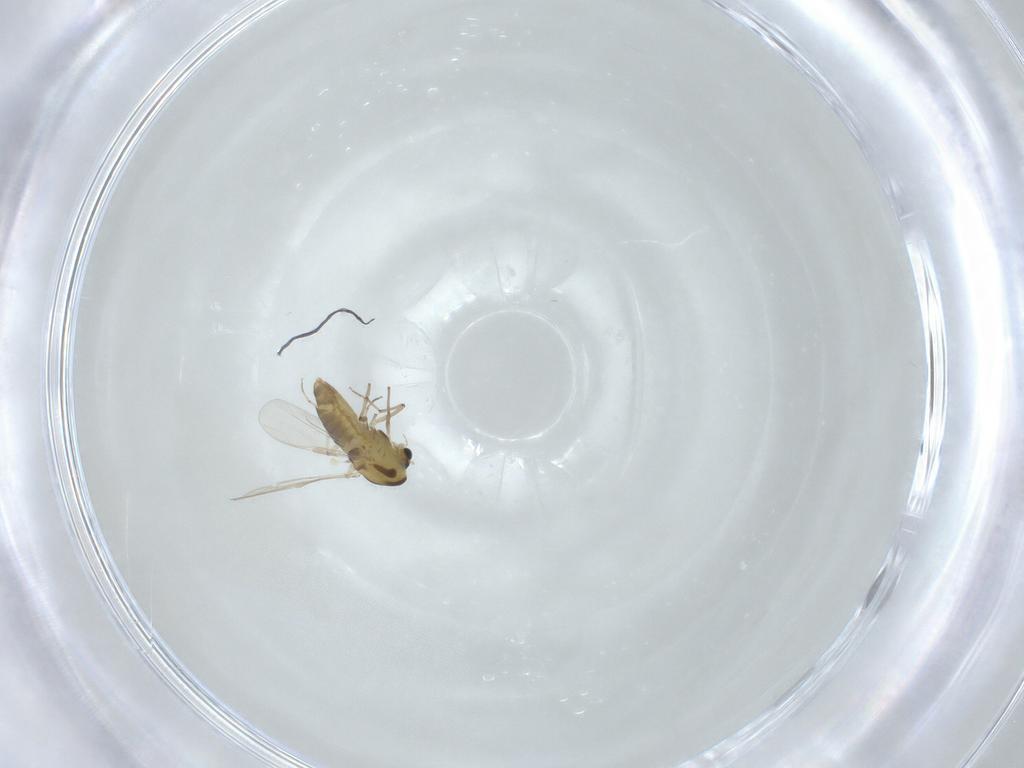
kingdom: Animalia
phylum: Arthropoda
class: Insecta
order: Diptera
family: Chironomidae
